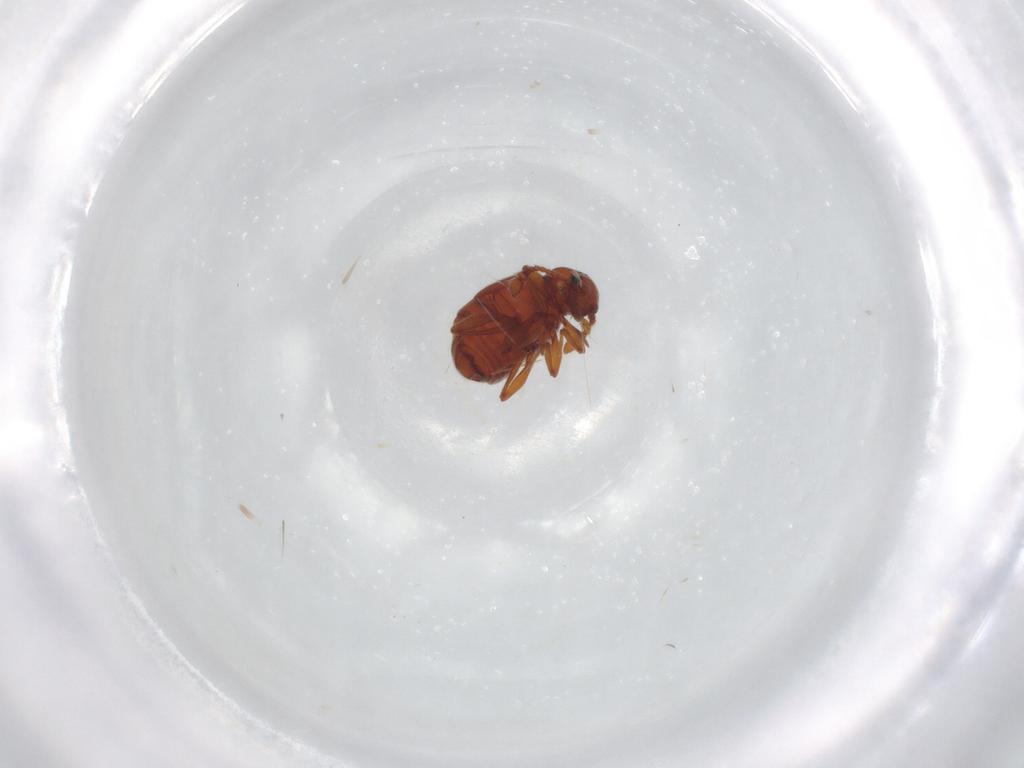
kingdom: Animalia
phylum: Arthropoda
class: Insecta
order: Coleoptera
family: Staphylinidae
